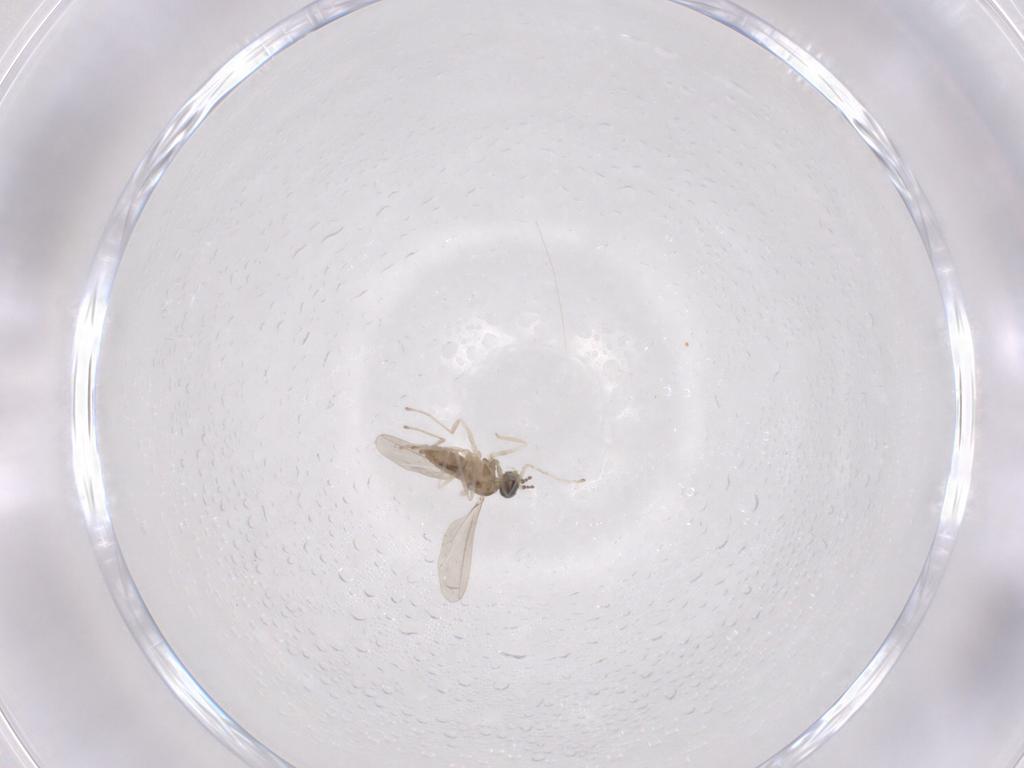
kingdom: Animalia
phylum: Arthropoda
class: Insecta
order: Diptera
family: Cecidomyiidae
